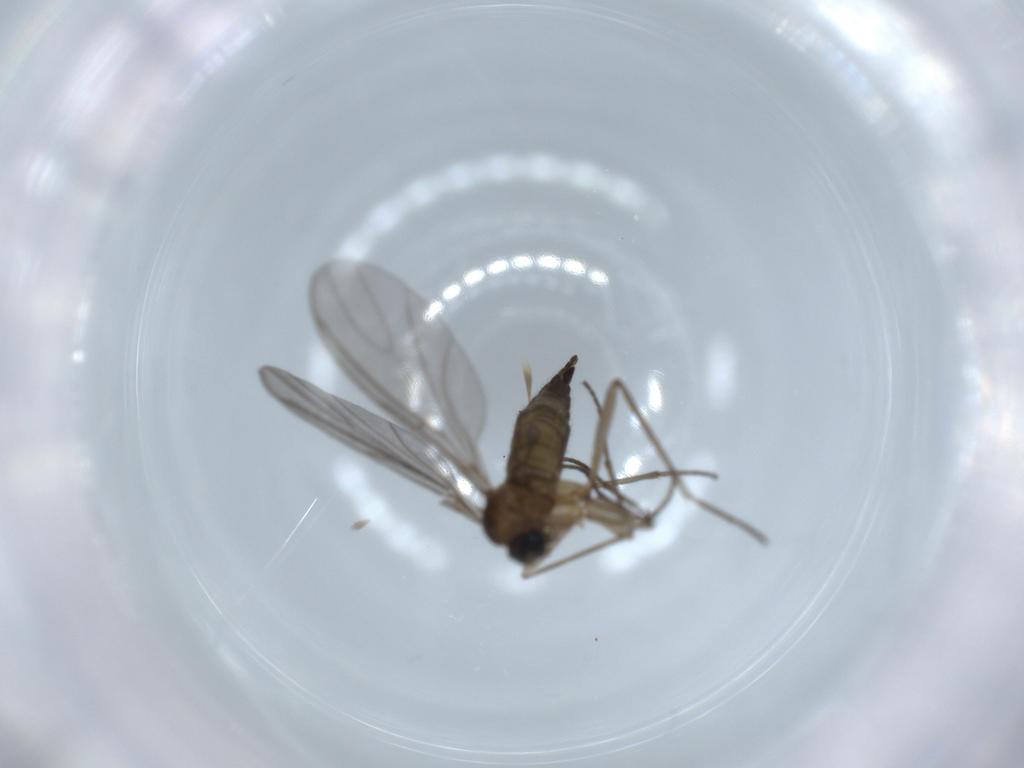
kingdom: Animalia
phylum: Arthropoda
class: Insecta
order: Diptera
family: Sciaridae
